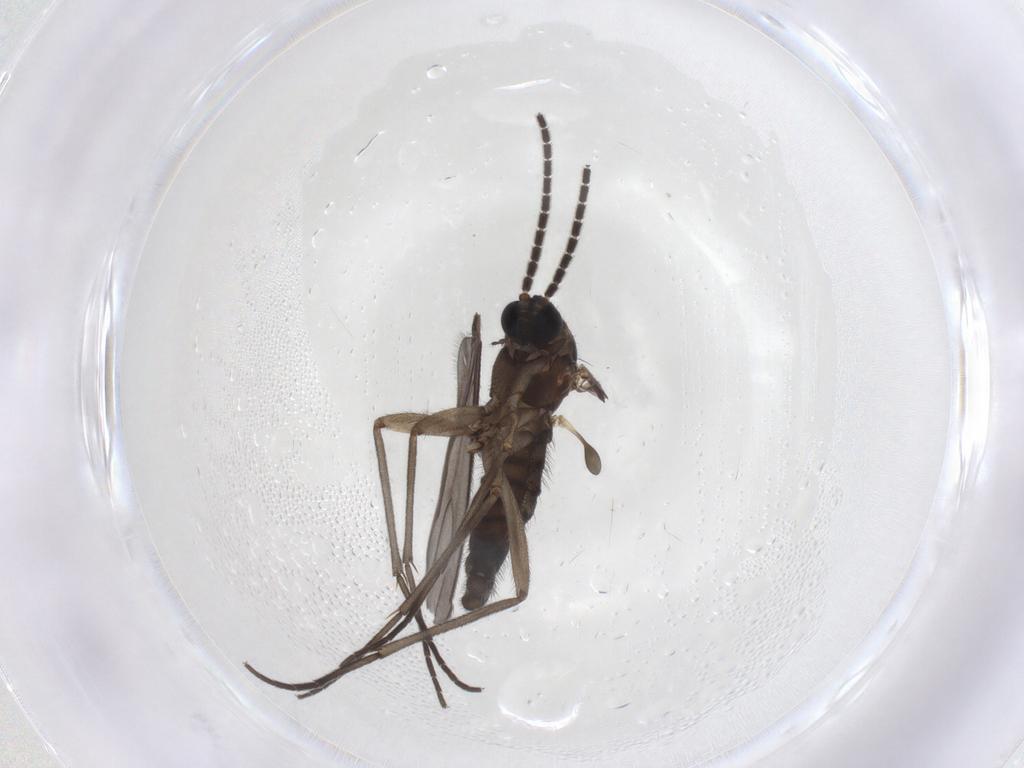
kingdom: Animalia
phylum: Arthropoda
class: Insecta
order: Diptera
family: Sciaridae
